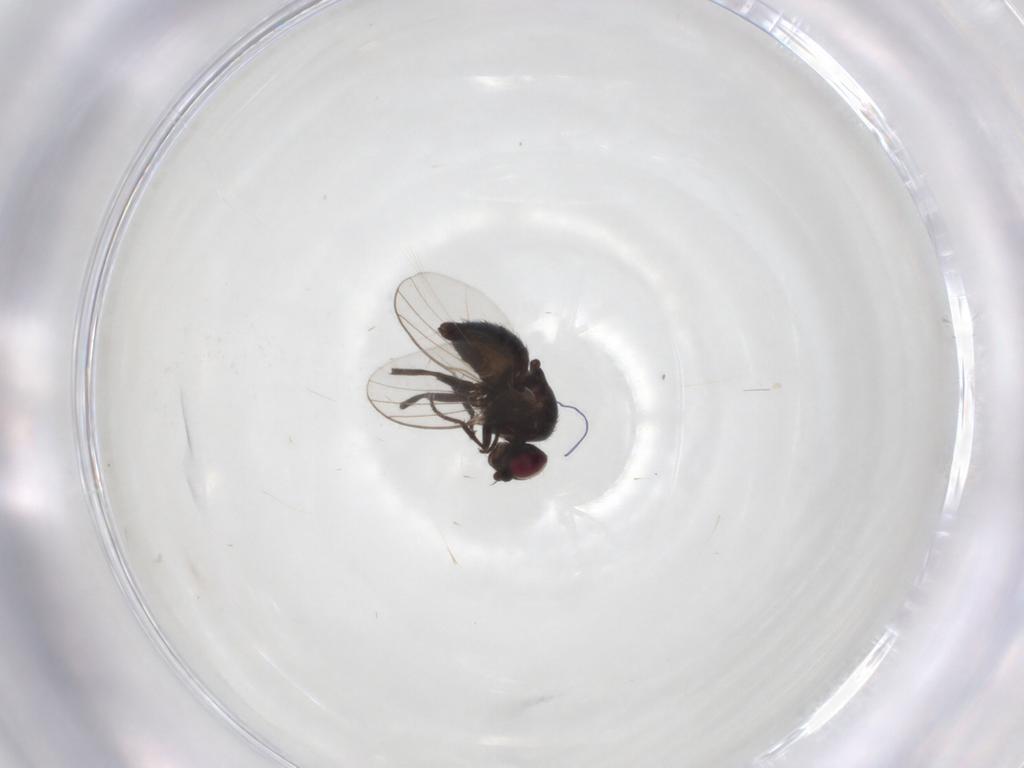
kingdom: Animalia
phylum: Arthropoda
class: Insecta
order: Diptera
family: Agromyzidae
